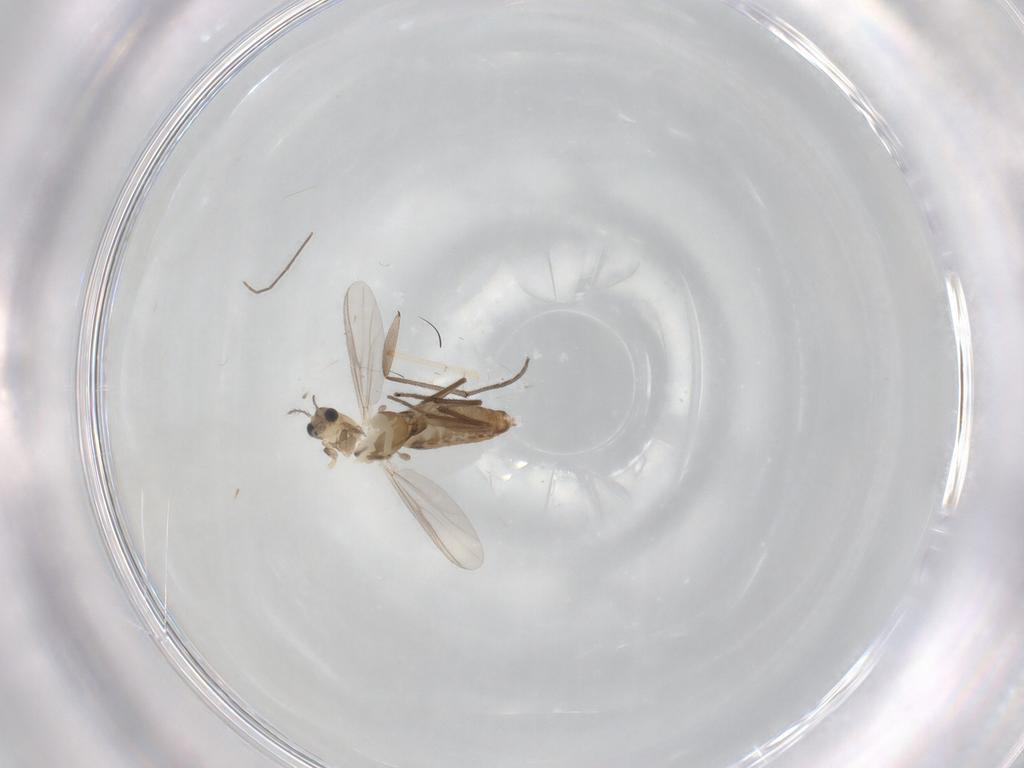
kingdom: Animalia
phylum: Arthropoda
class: Insecta
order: Diptera
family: Chironomidae
